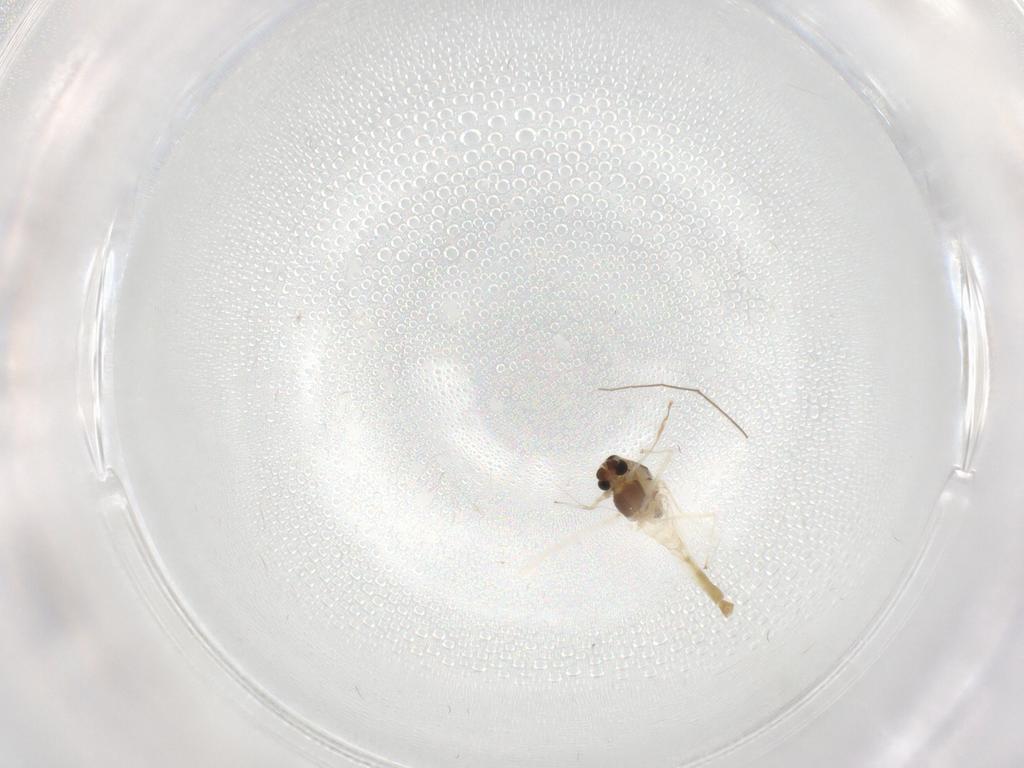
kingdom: Animalia
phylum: Arthropoda
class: Insecta
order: Diptera
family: Chironomidae
